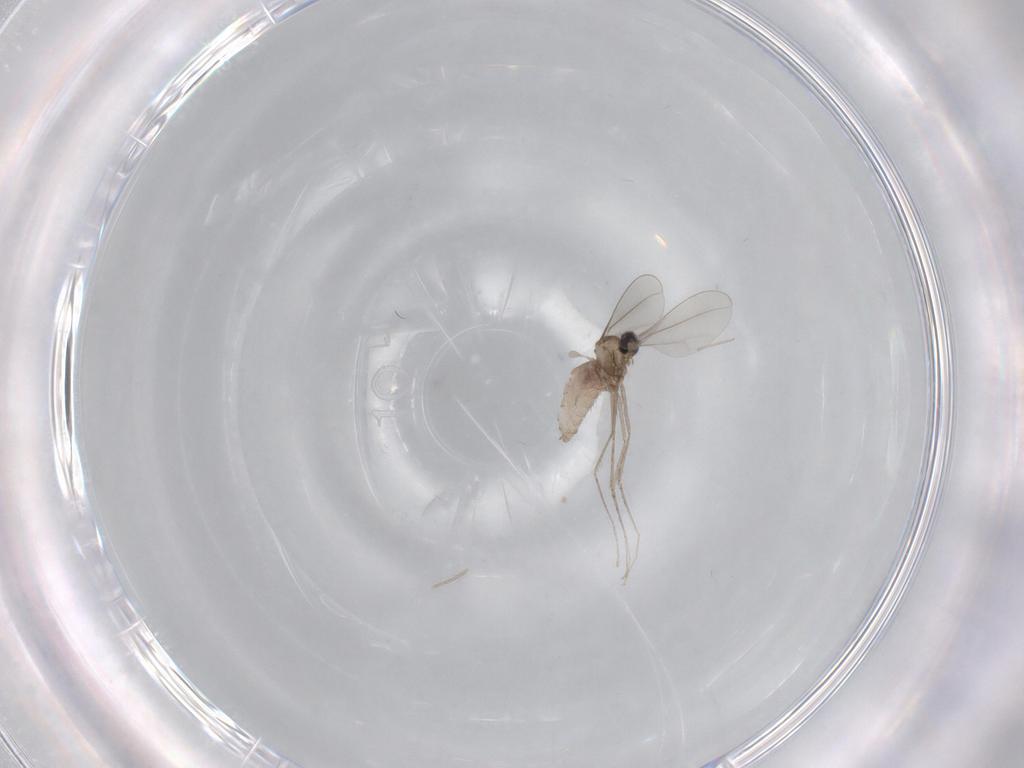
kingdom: Animalia
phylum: Arthropoda
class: Insecta
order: Diptera
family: Cecidomyiidae
